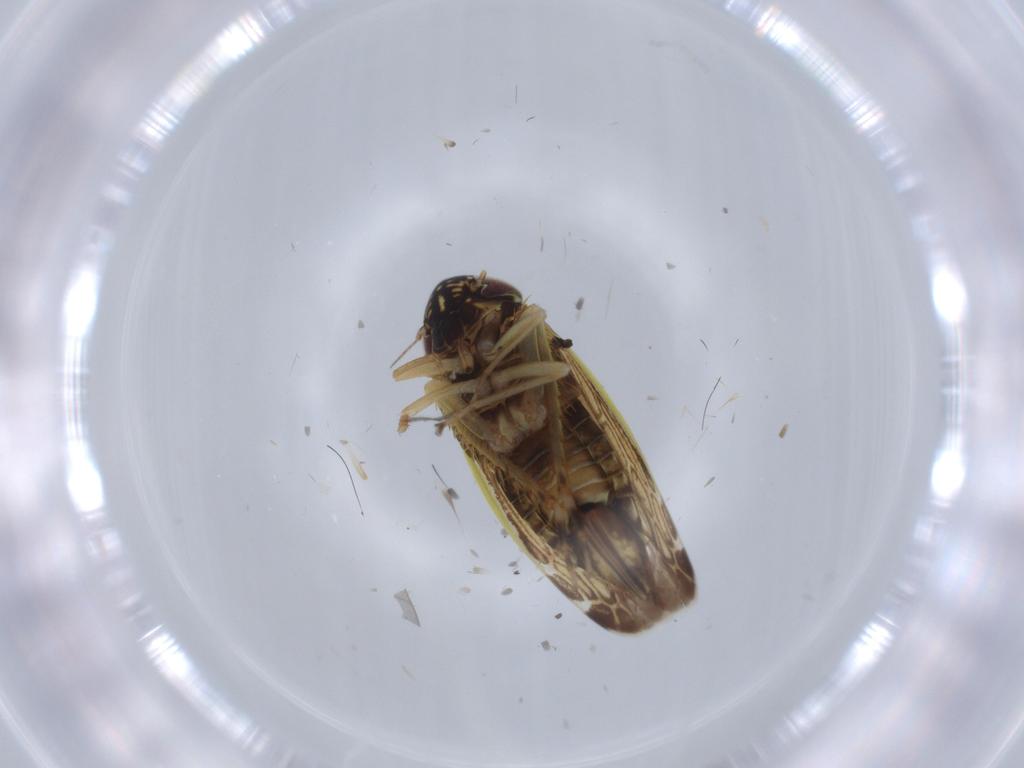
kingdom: Animalia
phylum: Arthropoda
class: Insecta
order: Hemiptera
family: Cicadellidae
